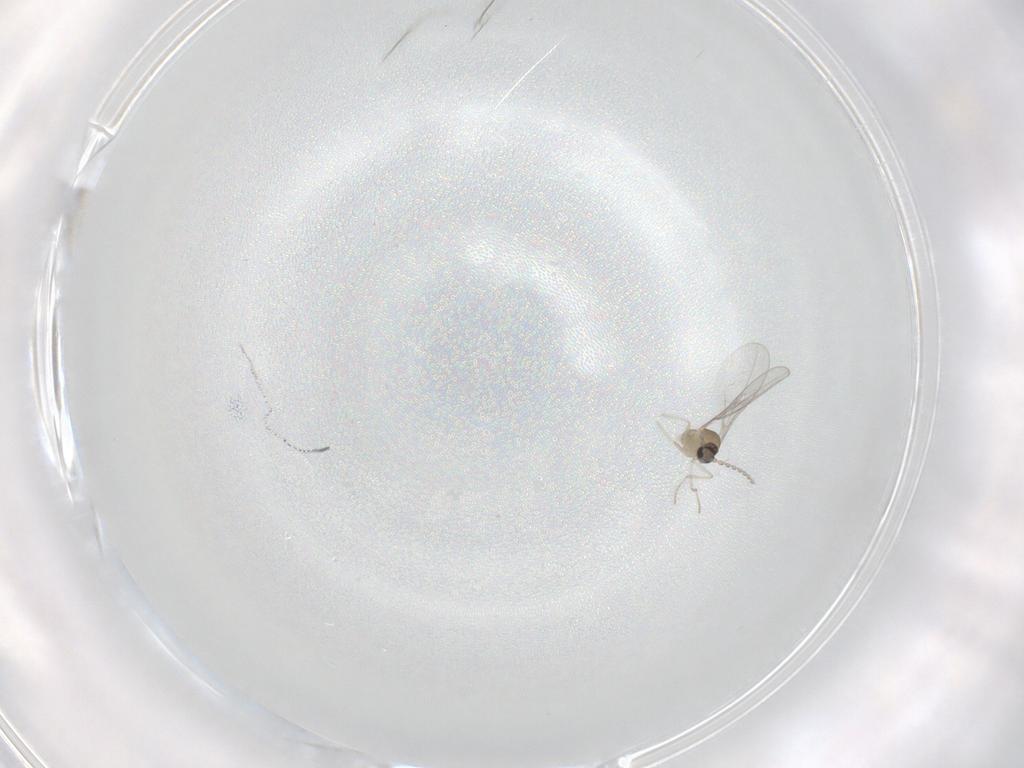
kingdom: Animalia
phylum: Arthropoda
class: Insecta
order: Diptera
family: Cecidomyiidae
